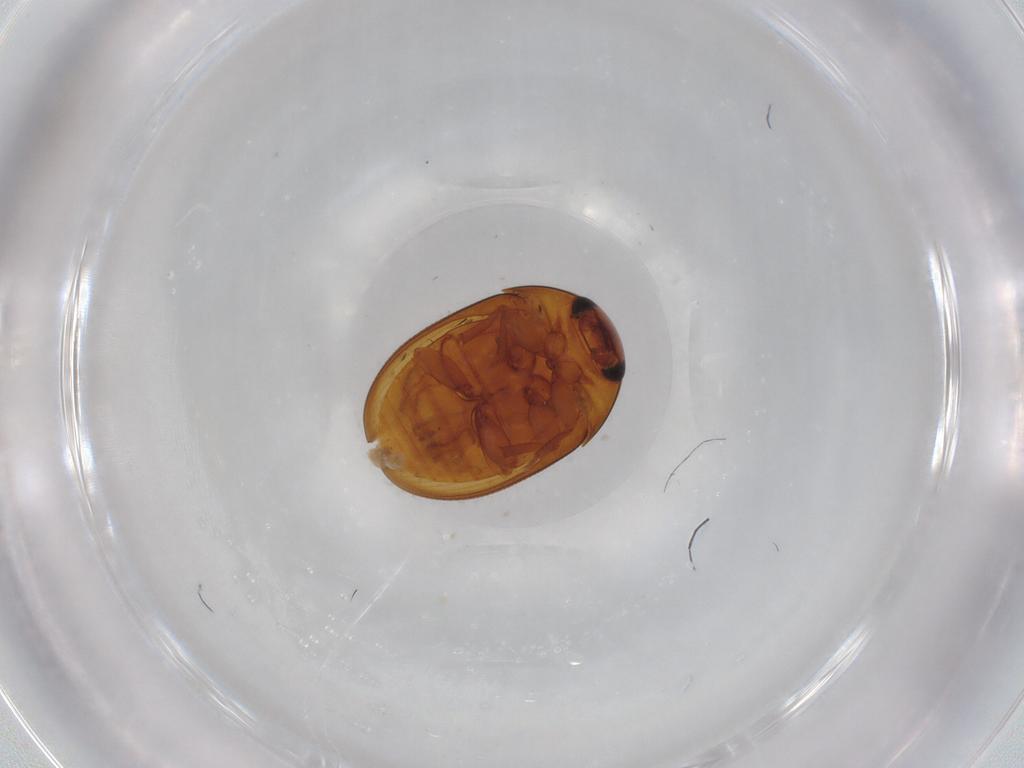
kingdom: Animalia
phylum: Arthropoda
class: Insecta
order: Coleoptera
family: Carabidae
